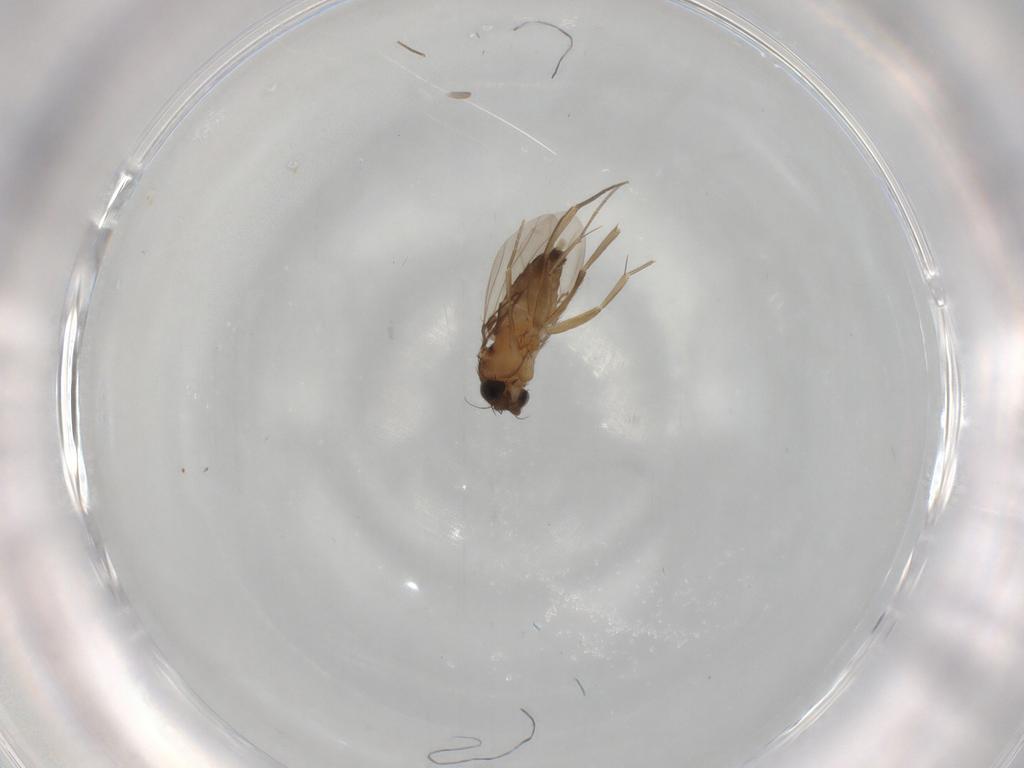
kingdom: Animalia
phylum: Arthropoda
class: Insecta
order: Diptera
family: Phoridae
